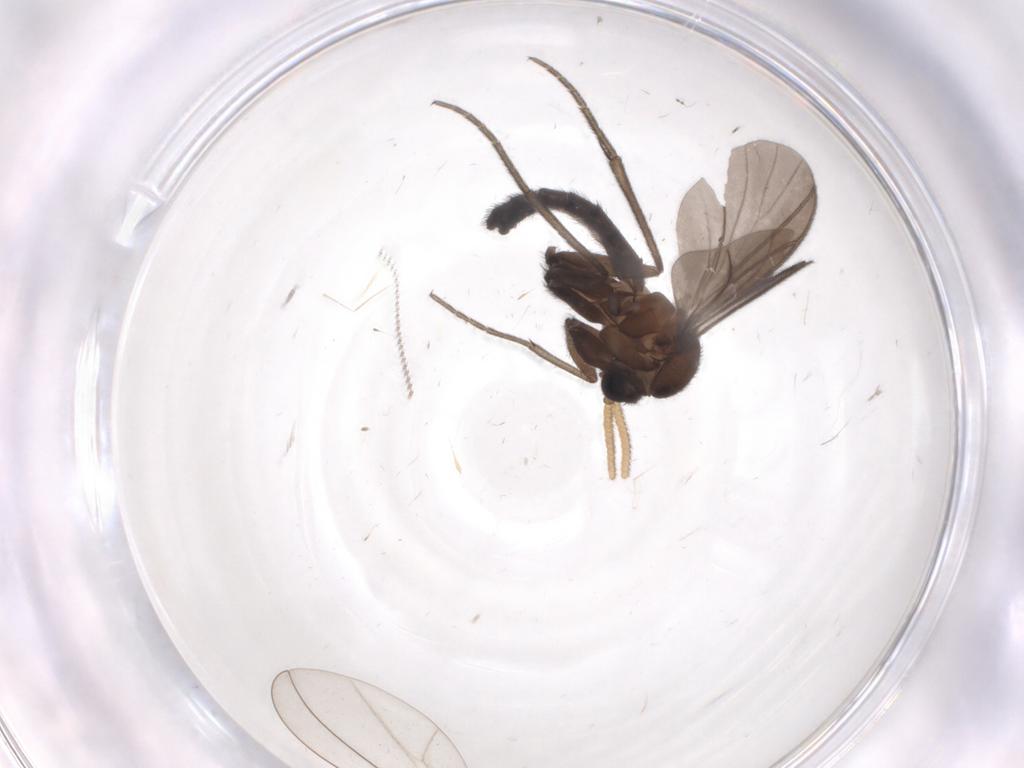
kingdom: Animalia
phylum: Arthropoda
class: Insecta
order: Diptera
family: Mycetophilidae
